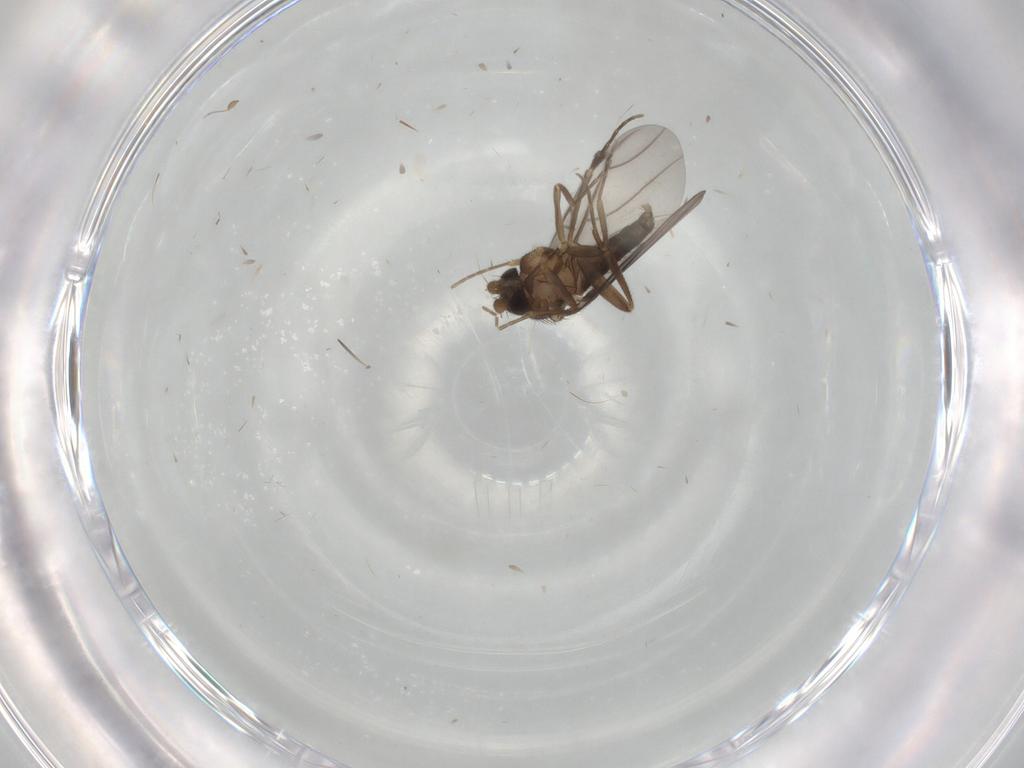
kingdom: Animalia
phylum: Arthropoda
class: Insecta
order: Diptera
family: Cecidomyiidae
